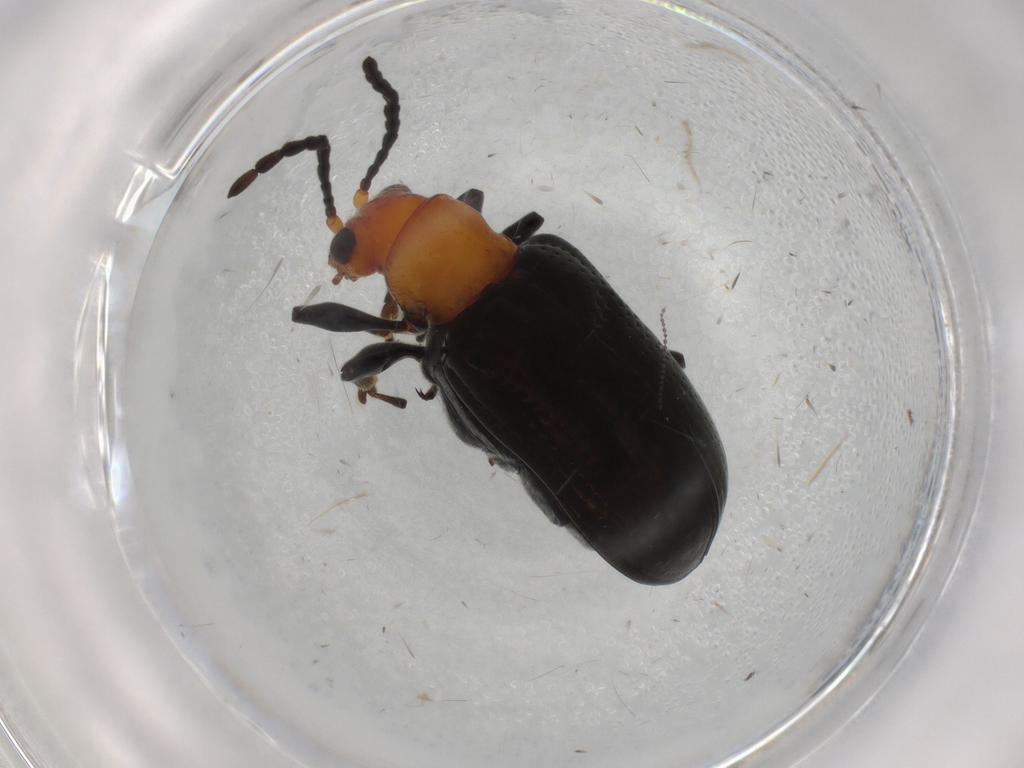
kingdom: Animalia
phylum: Arthropoda
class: Insecta
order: Coleoptera
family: Chrysomelidae
